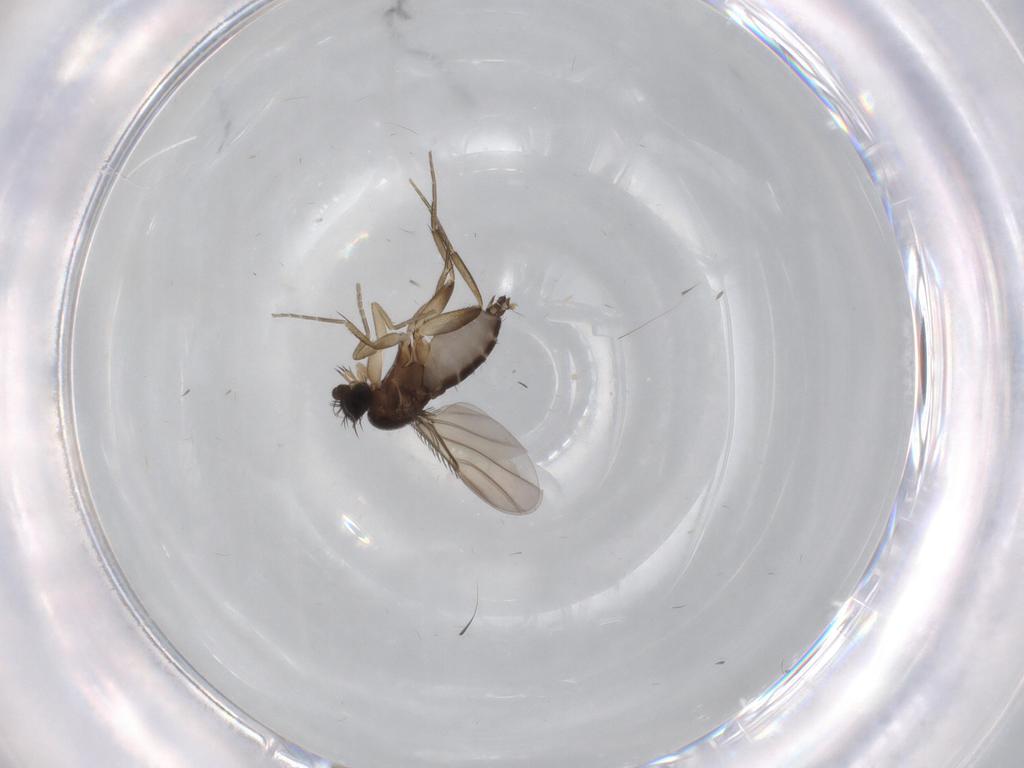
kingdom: Animalia
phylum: Arthropoda
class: Insecta
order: Diptera
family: Phoridae
